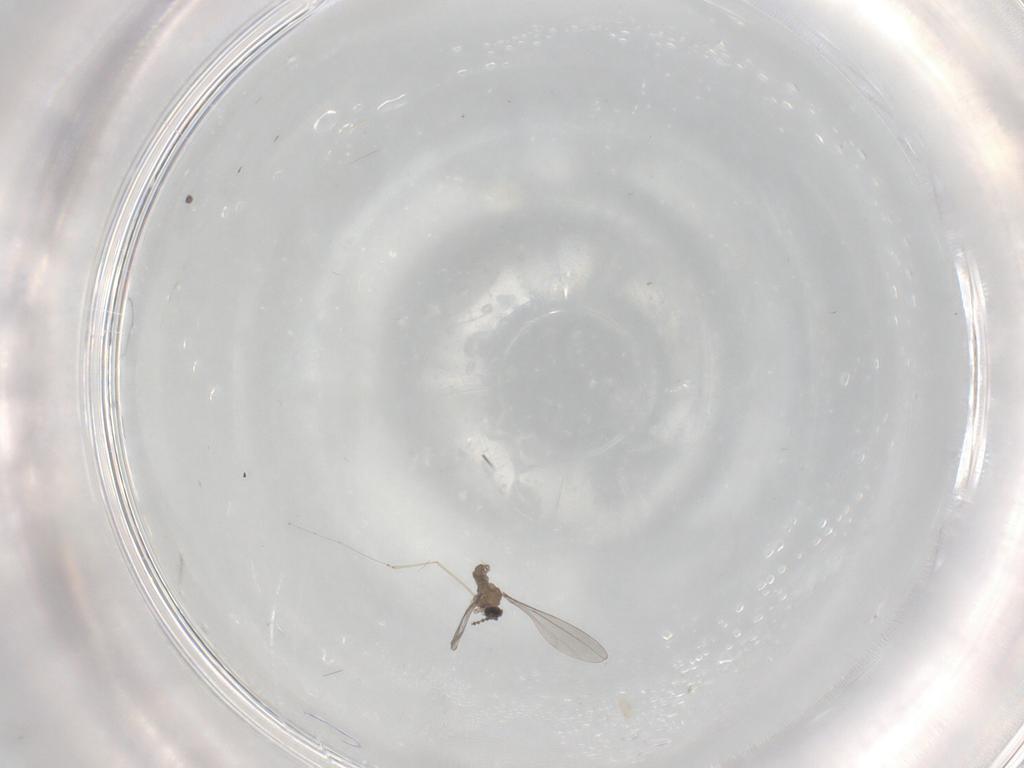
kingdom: Animalia
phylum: Arthropoda
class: Insecta
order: Diptera
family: Cecidomyiidae
